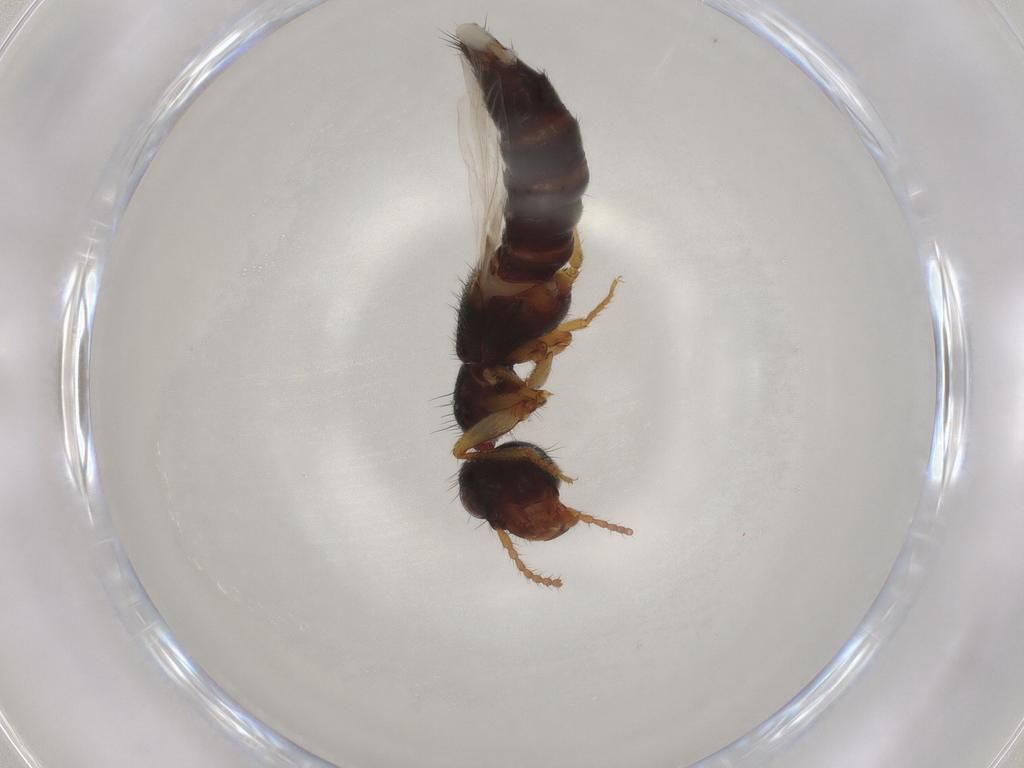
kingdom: Animalia
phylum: Arthropoda
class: Insecta
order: Coleoptera
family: Staphylinidae
